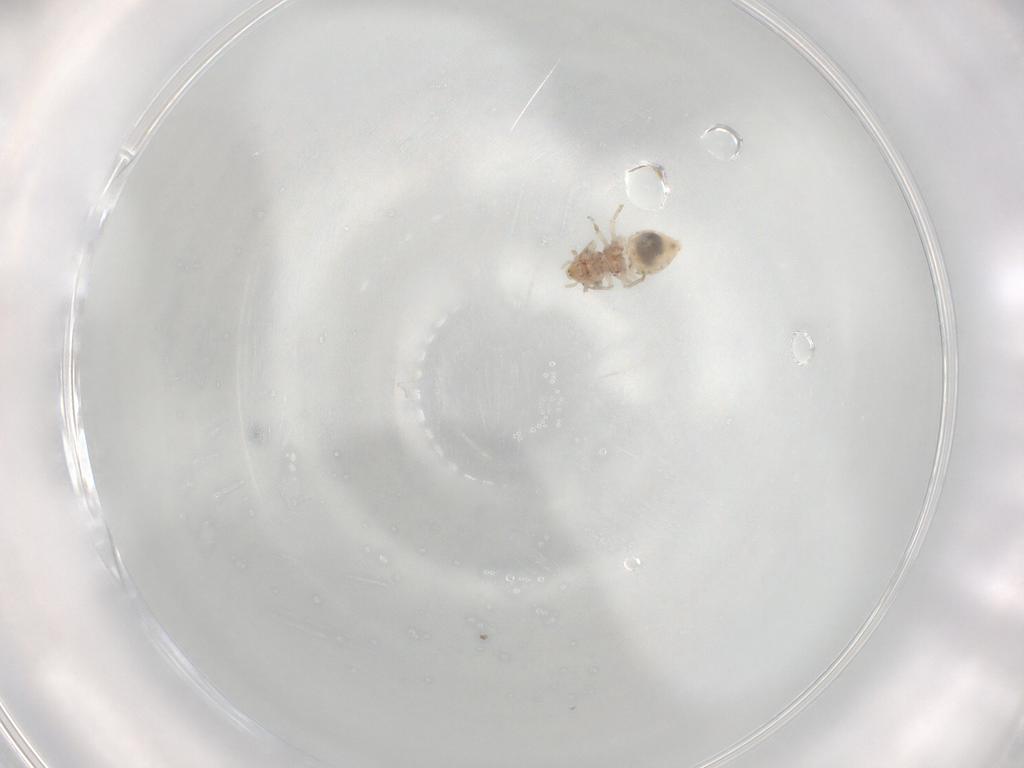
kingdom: Animalia
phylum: Arthropoda
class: Insecta
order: Psocodea
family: Ectopsocidae
